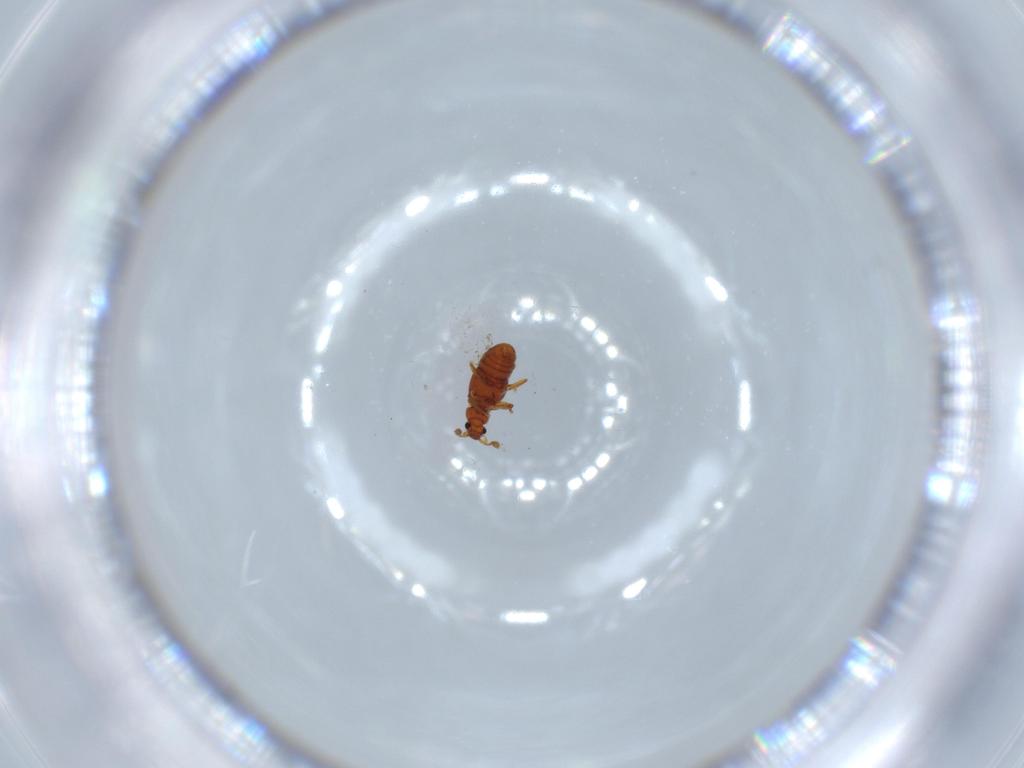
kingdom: Animalia
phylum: Arthropoda
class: Insecta
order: Coleoptera
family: Staphylinidae
